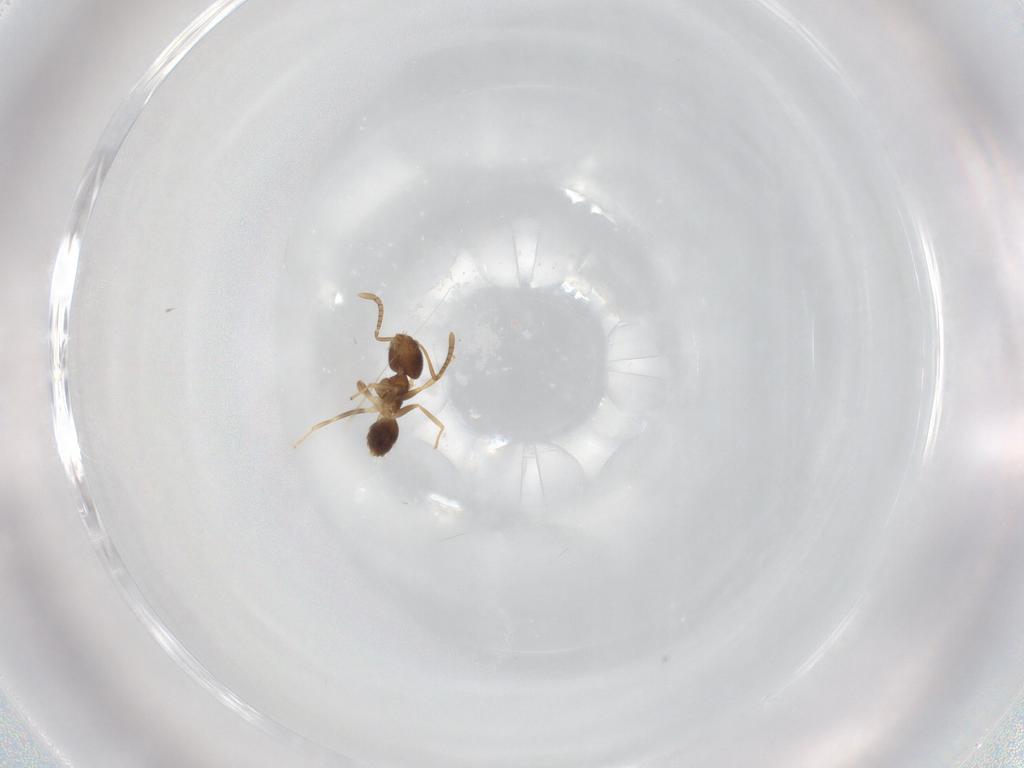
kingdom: Animalia
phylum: Arthropoda
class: Insecta
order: Hymenoptera
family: Formicidae
